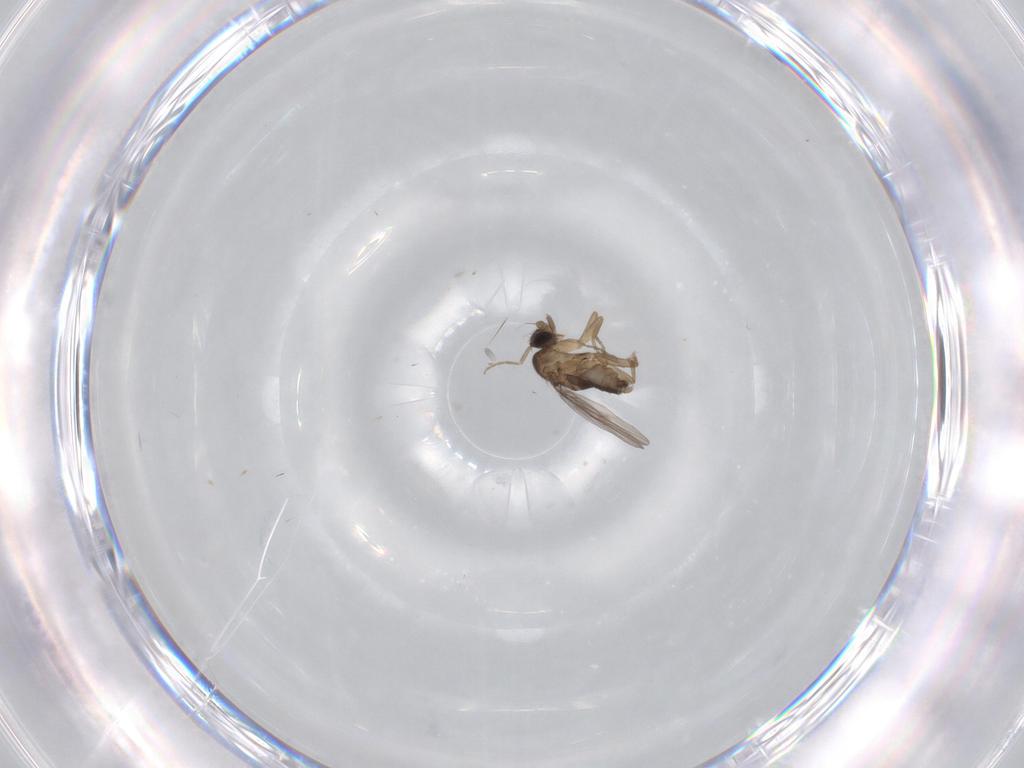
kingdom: Animalia
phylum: Arthropoda
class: Insecta
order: Diptera
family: Phoridae
